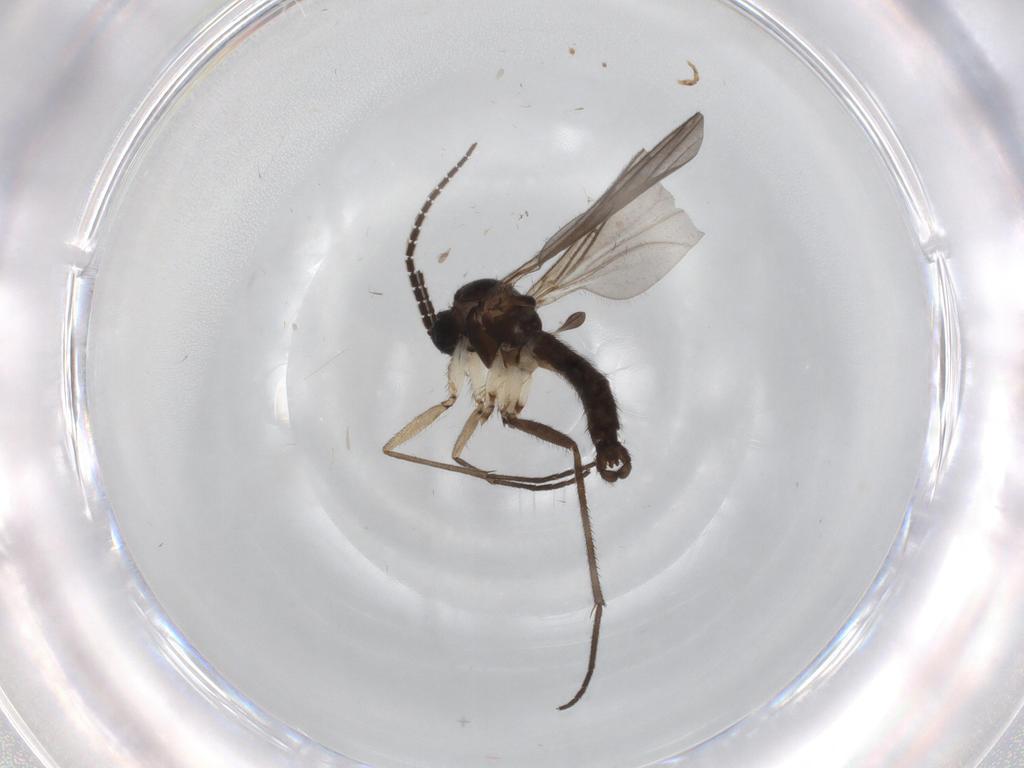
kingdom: Animalia
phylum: Arthropoda
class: Insecta
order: Diptera
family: Sciaridae
